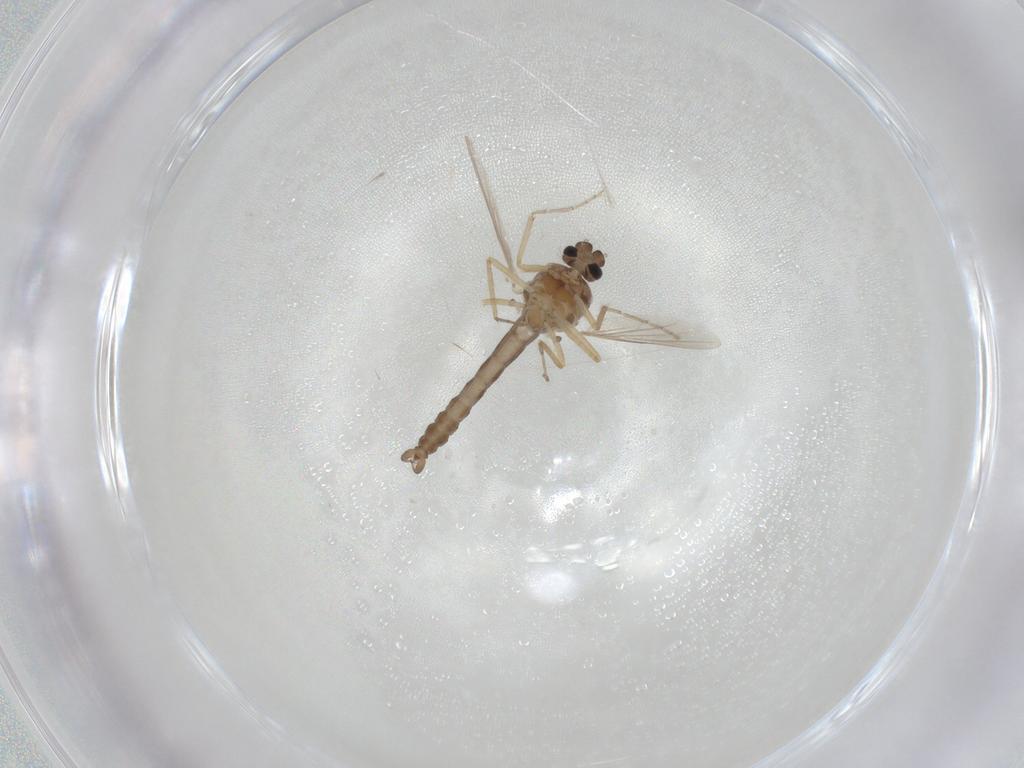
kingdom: Animalia
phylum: Arthropoda
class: Insecta
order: Diptera
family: Ceratopogonidae
